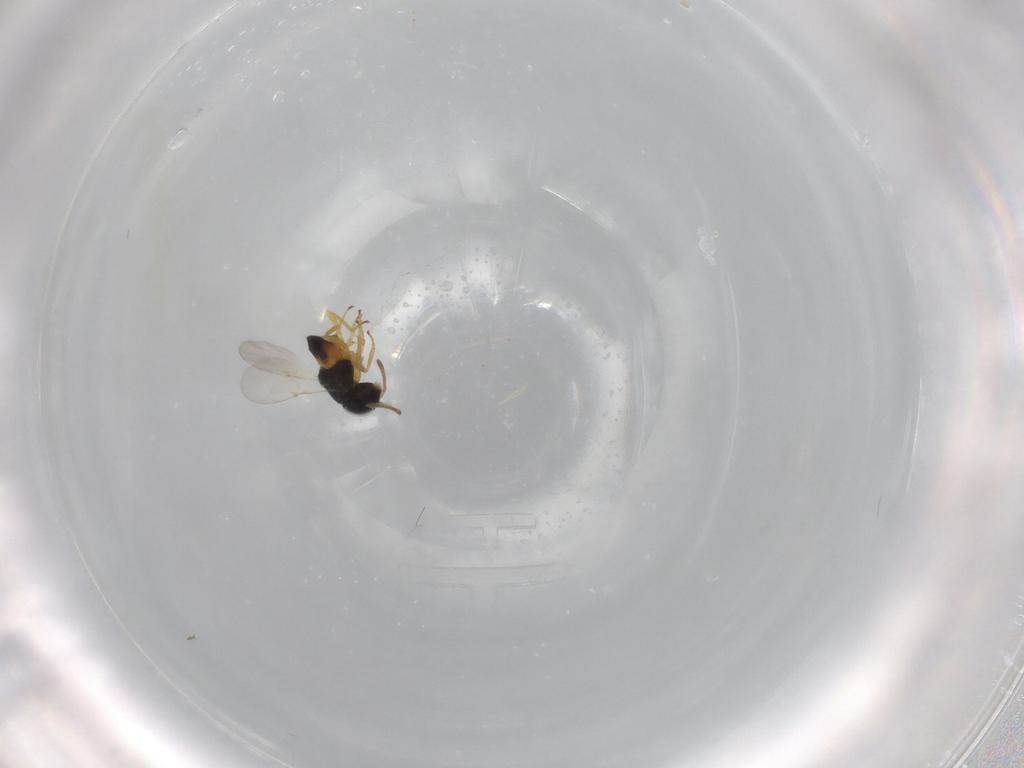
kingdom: Animalia
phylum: Arthropoda
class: Insecta
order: Hymenoptera
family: Encyrtidae
